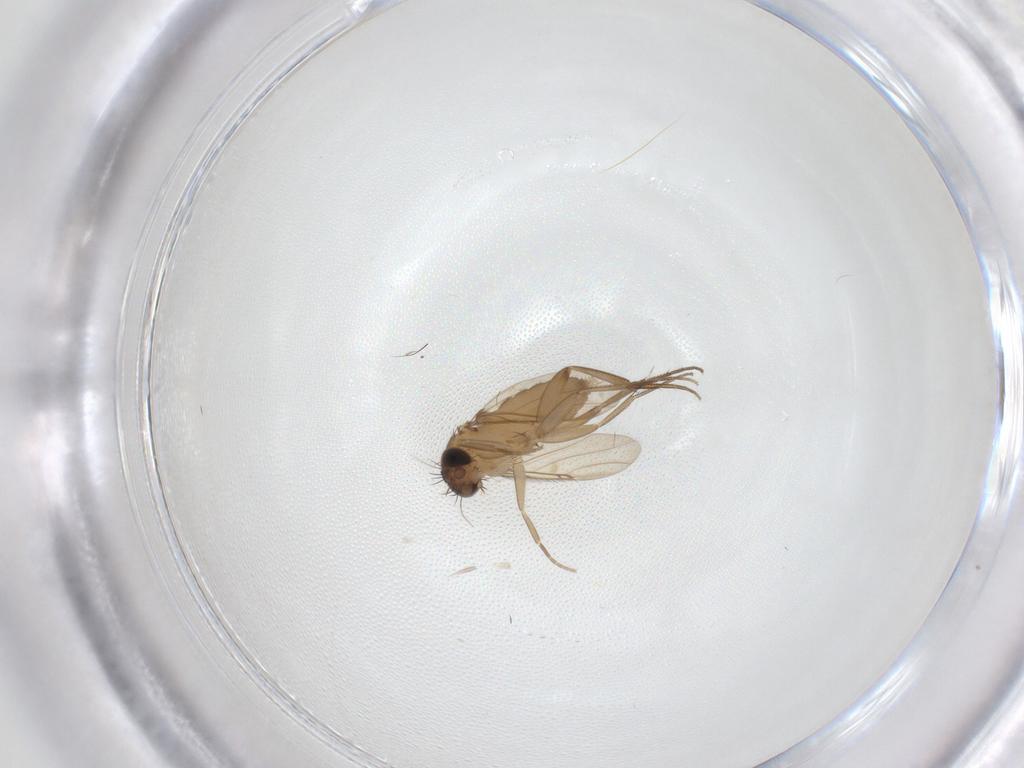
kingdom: Animalia
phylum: Arthropoda
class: Insecta
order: Diptera
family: Phoridae
